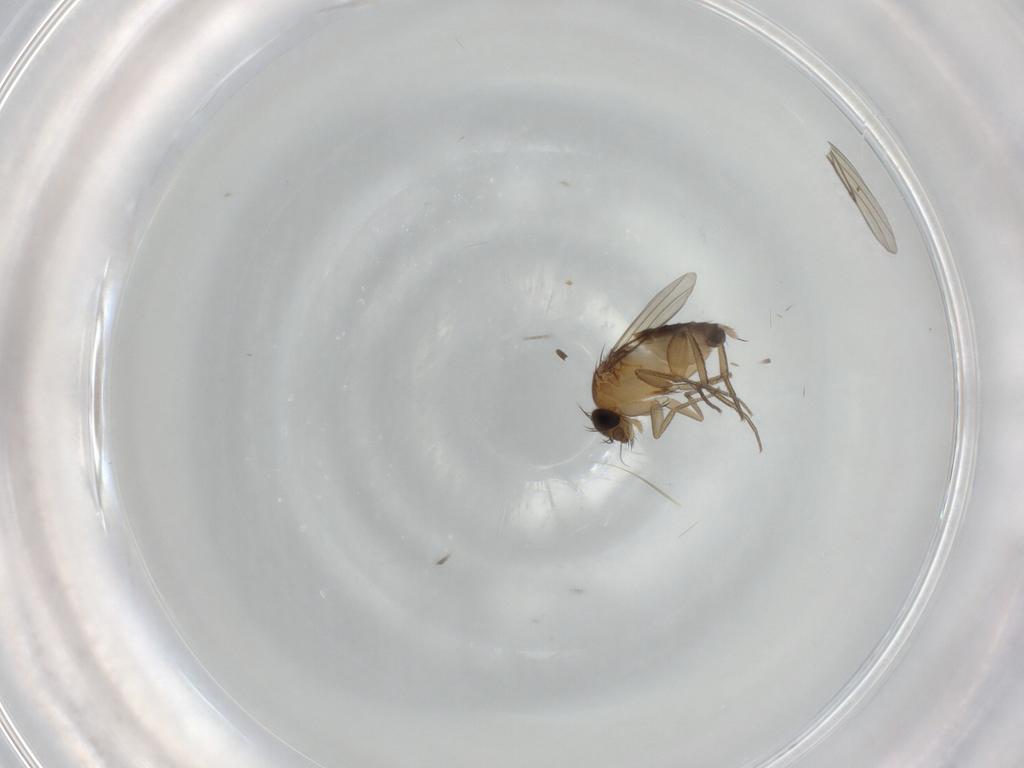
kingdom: Animalia
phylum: Arthropoda
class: Insecta
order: Diptera
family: Phoridae
